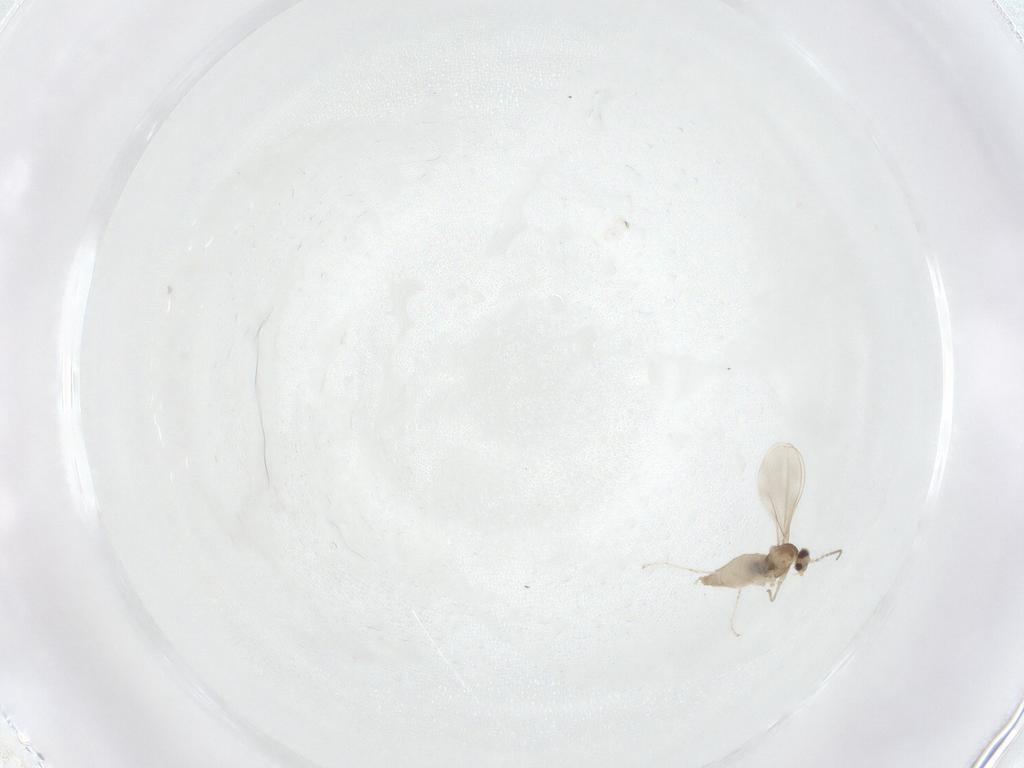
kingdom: Animalia
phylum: Arthropoda
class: Insecta
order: Diptera
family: Cecidomyiidae
